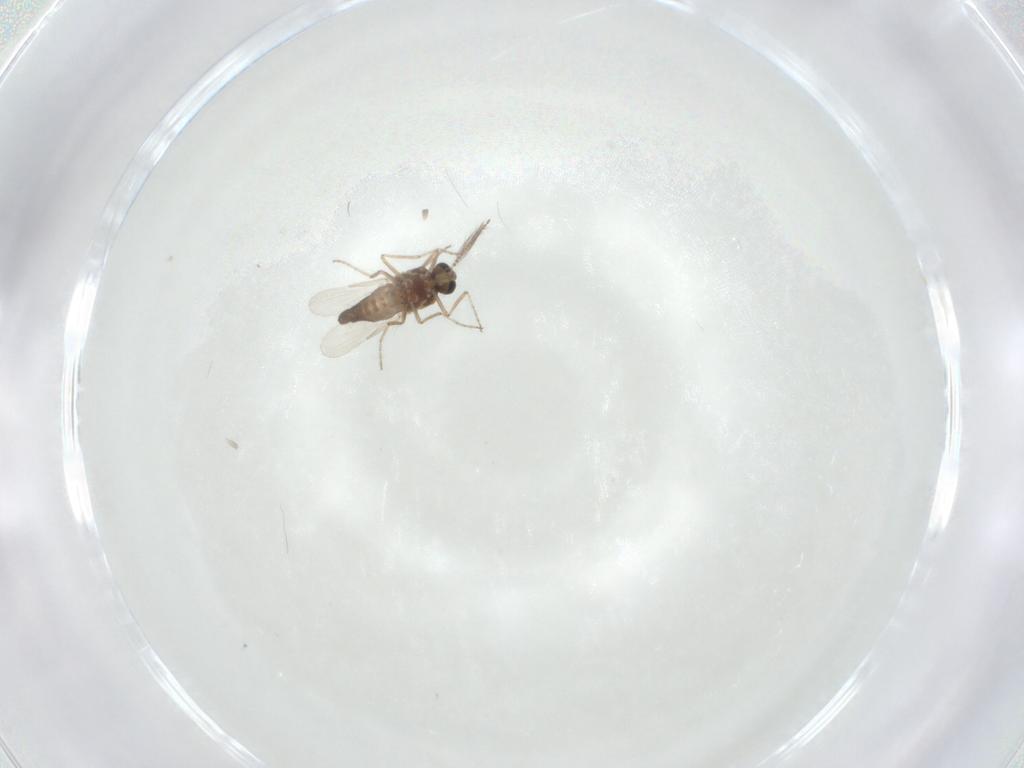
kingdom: Animalia
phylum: Arthropoda
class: Insecta
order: Diptera
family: Ceratopogonidae
